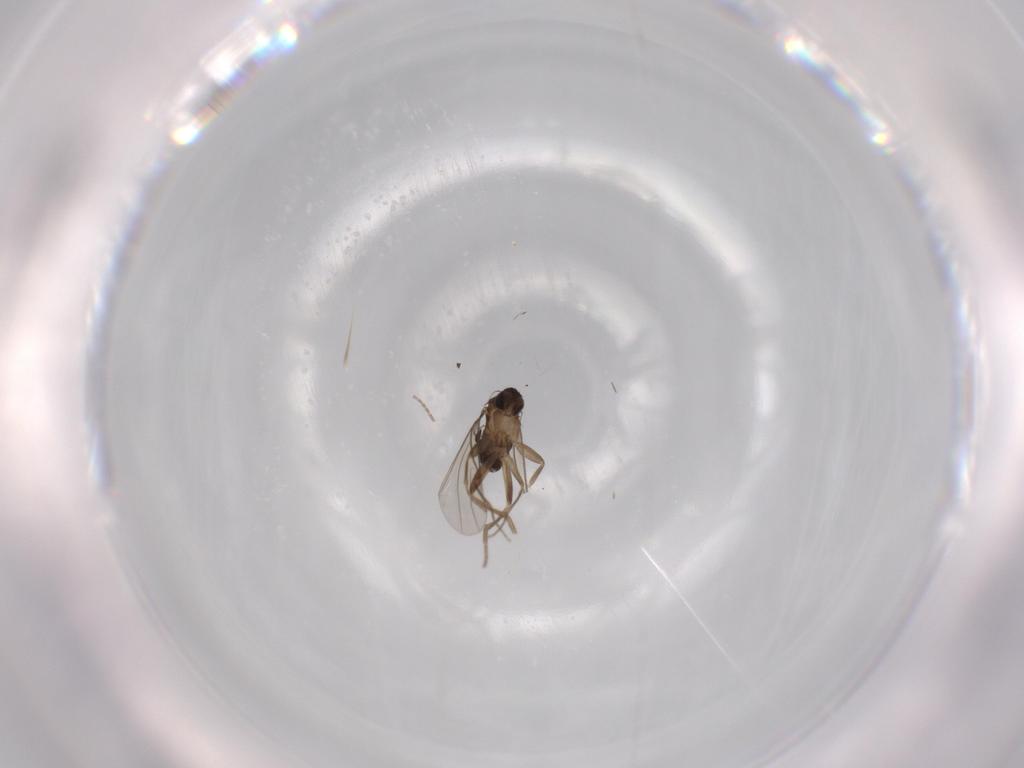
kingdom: Animalia
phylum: Arthropoda
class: Insecta
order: Diptera
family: Phoridae
